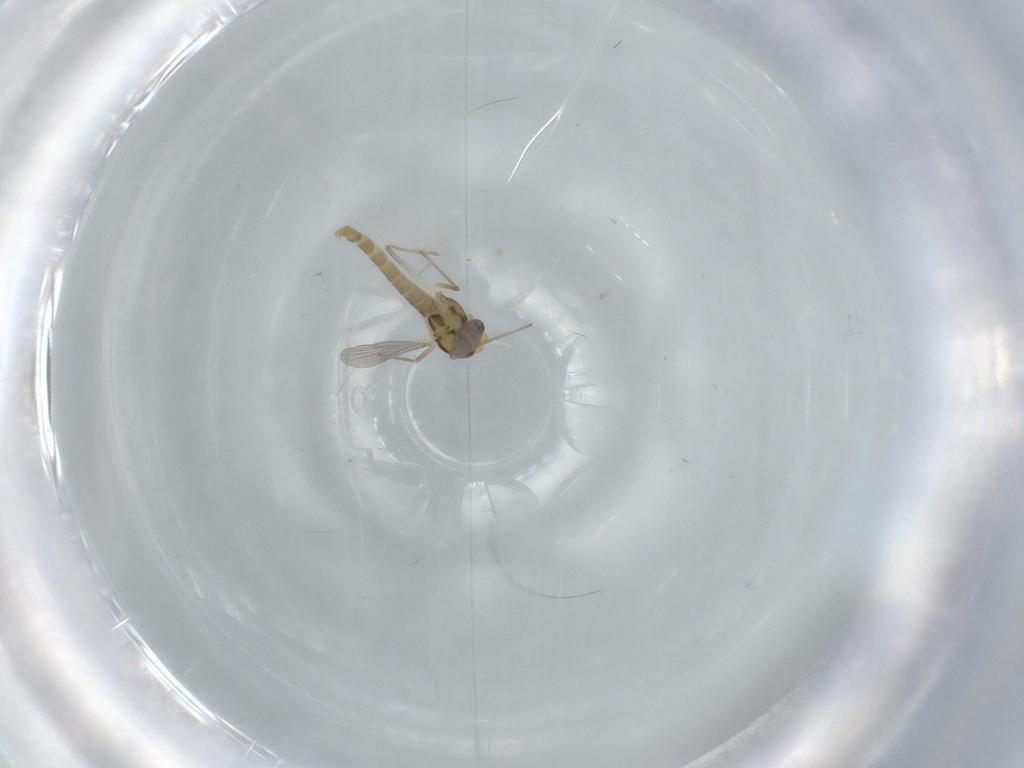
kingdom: Animalia
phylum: Arthropoda
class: Insecta
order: Diptera
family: Chironomidae
